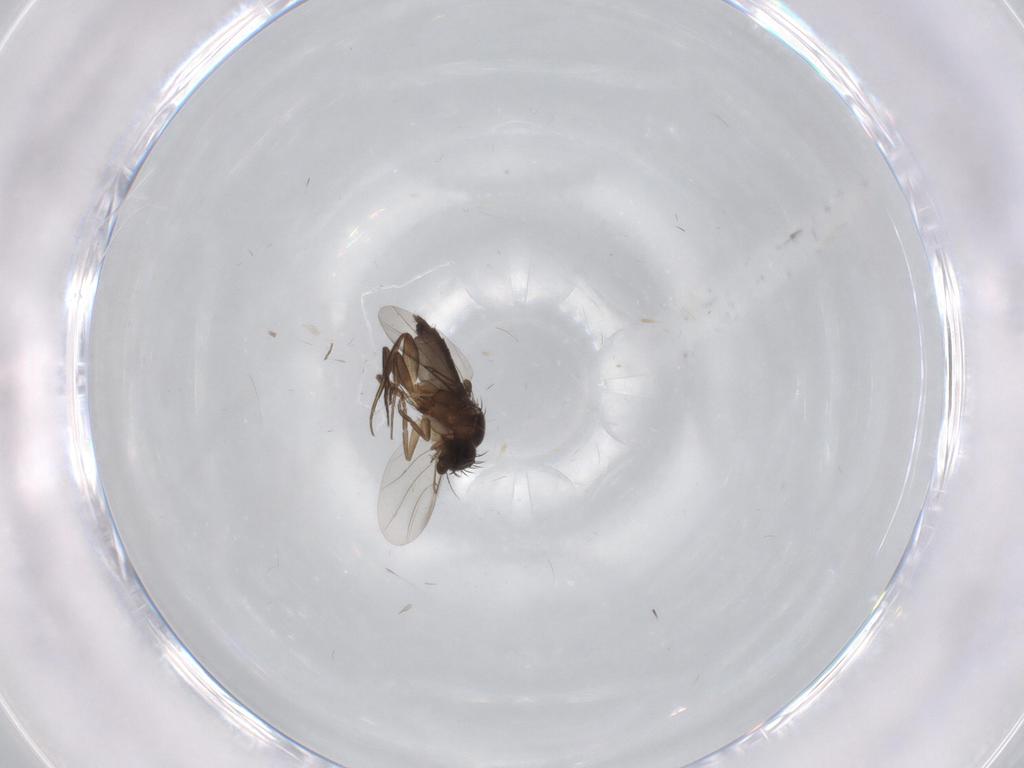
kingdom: Animalia
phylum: Arthropoda
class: Insecta
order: Diptera
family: Phoridae
